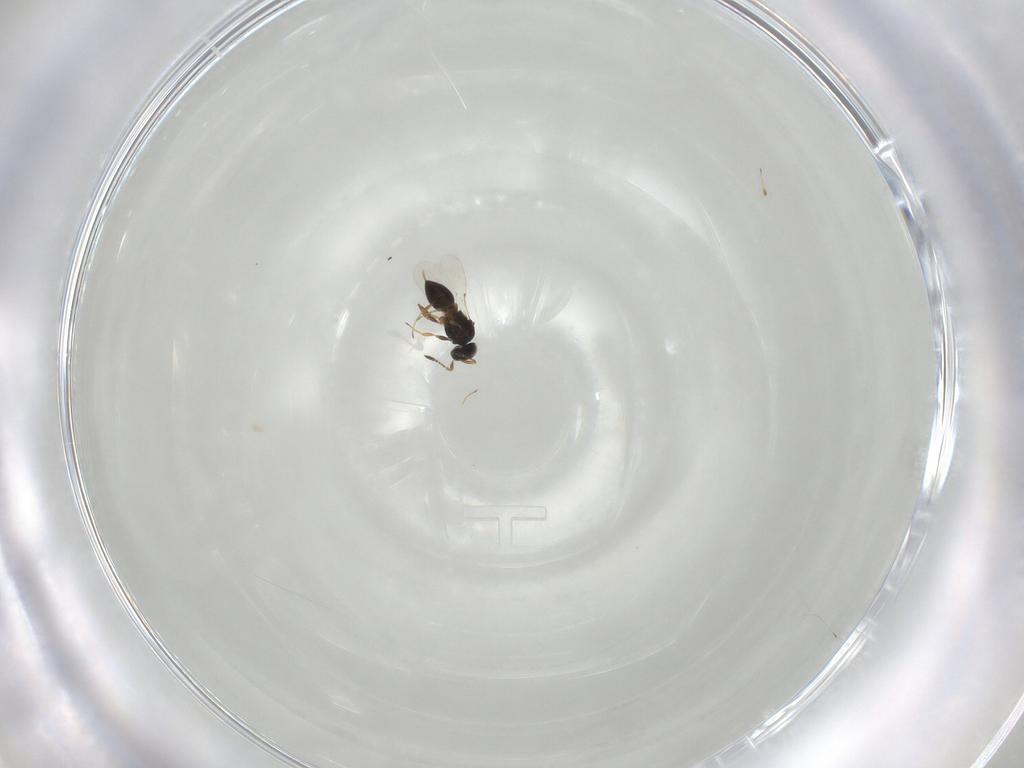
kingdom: Animalia
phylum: Arthropoda
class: Insecta
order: Hymenoptera
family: Platygastridae
